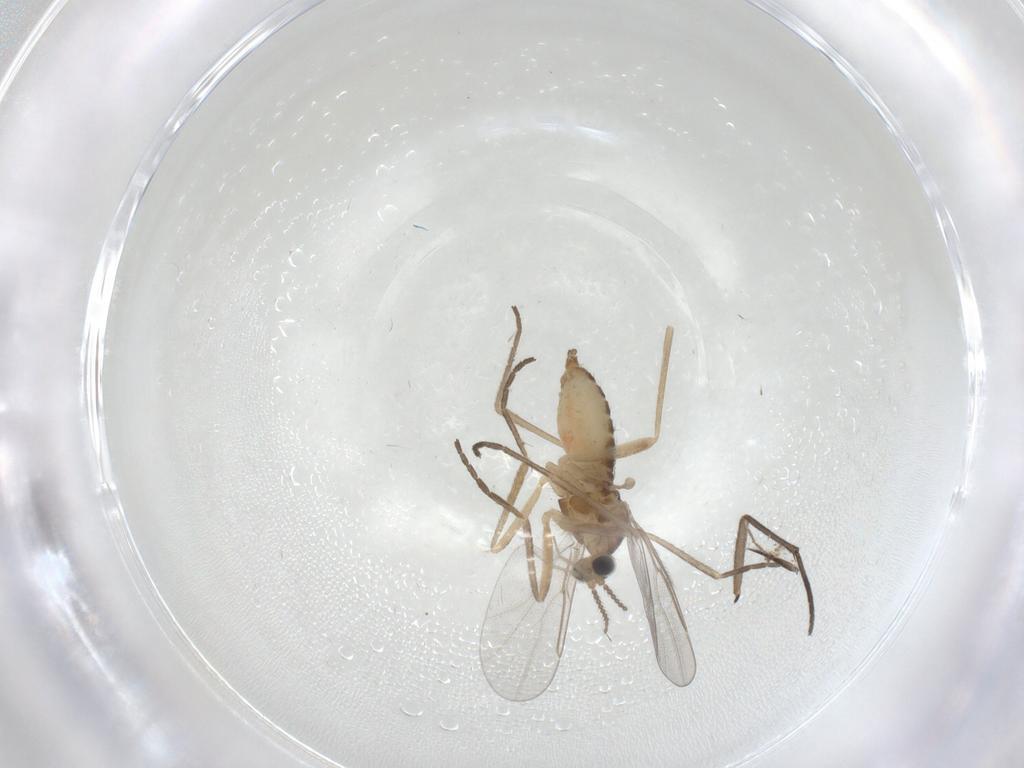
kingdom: Animalia
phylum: Arthropoda
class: Insecta
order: Diptera
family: Sciaridae
